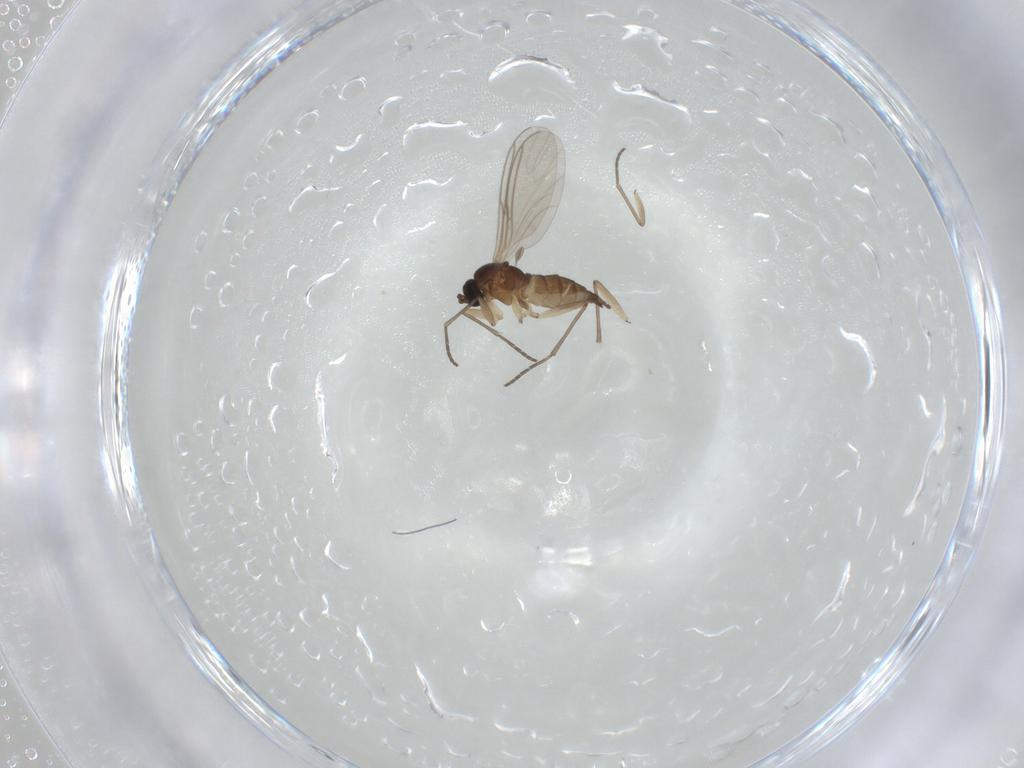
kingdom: Animalia
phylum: Arthropoda
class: Insecta
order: Diptera
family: Sciaridae
